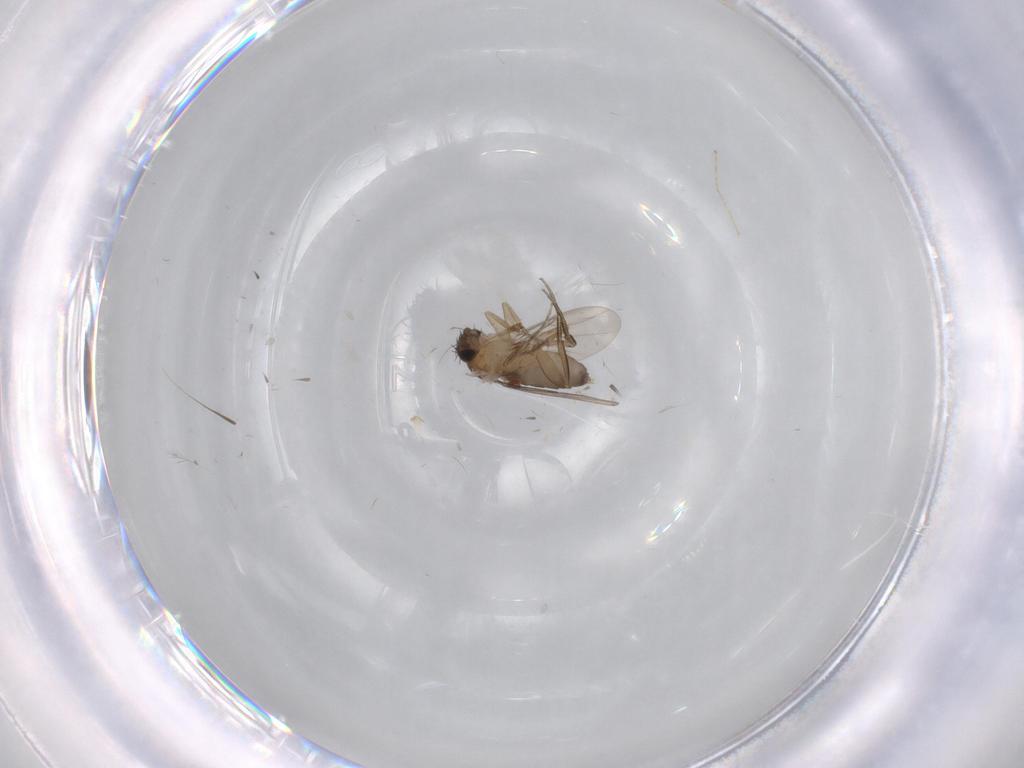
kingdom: Animalia
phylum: Arthropoda
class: Insecta
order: Diptera
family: Phoridae
